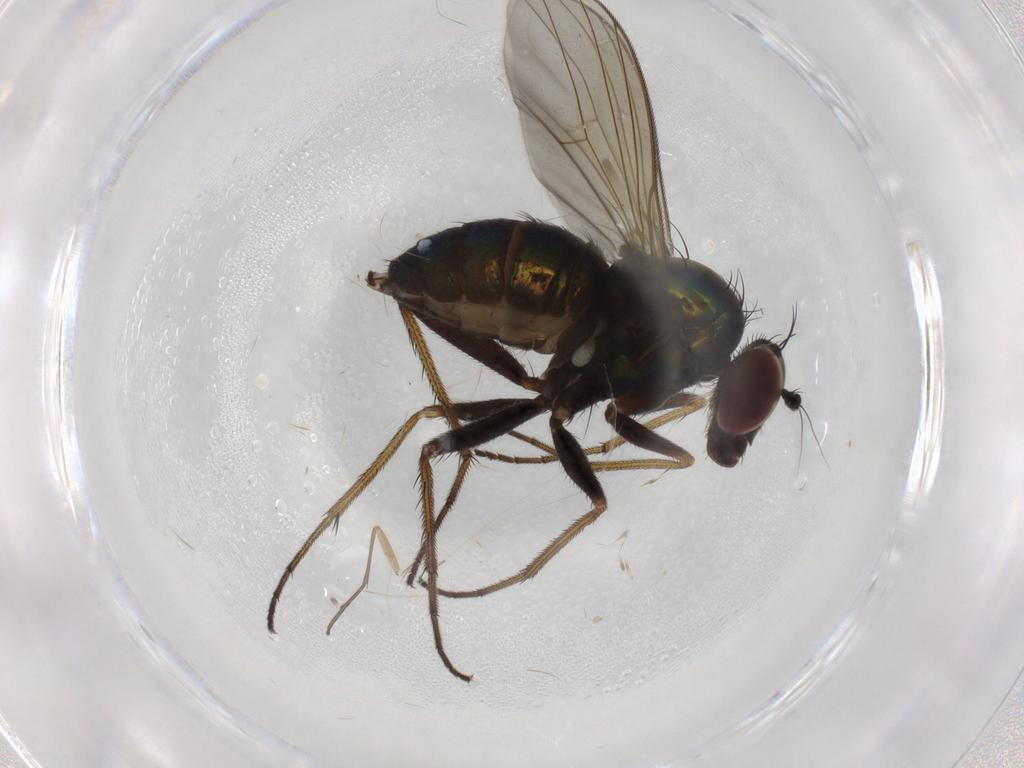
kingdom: Animalia
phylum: Arthropoda
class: Insecta
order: Diptera
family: Dolichopodidae
